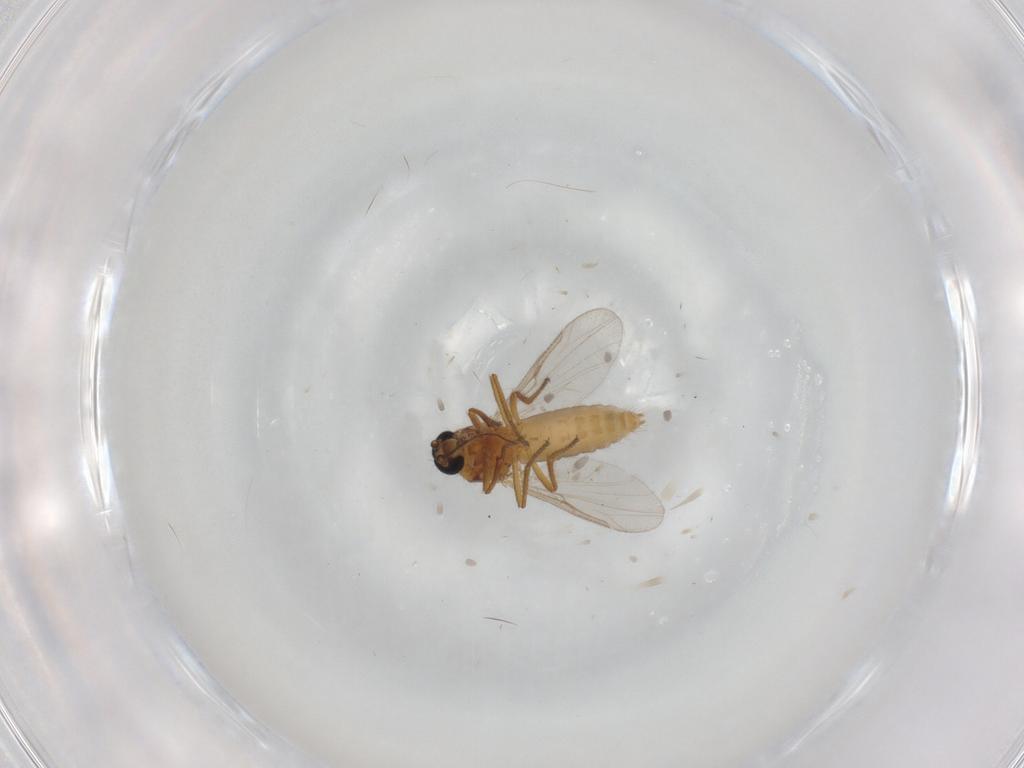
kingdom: Animalia
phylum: Arthropoda
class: Insecta
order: Diptera
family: Ceratopogonidae
